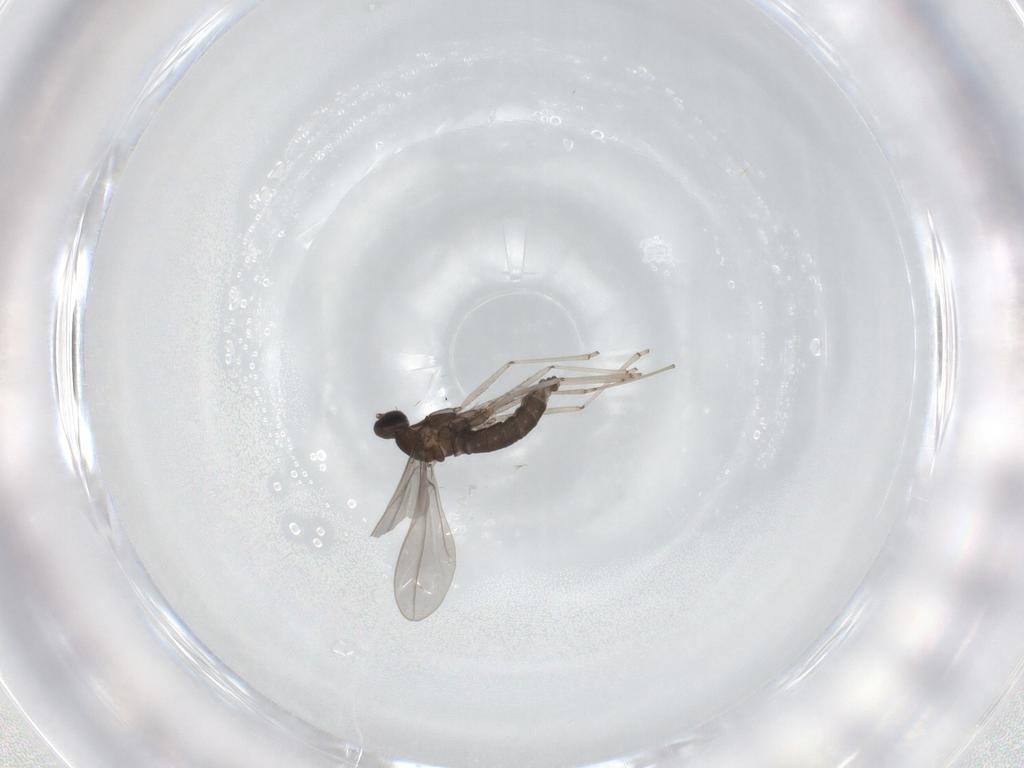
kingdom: Animalia
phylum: Arthropoda
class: Insecta
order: Diptera
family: Cecidomyiidae
